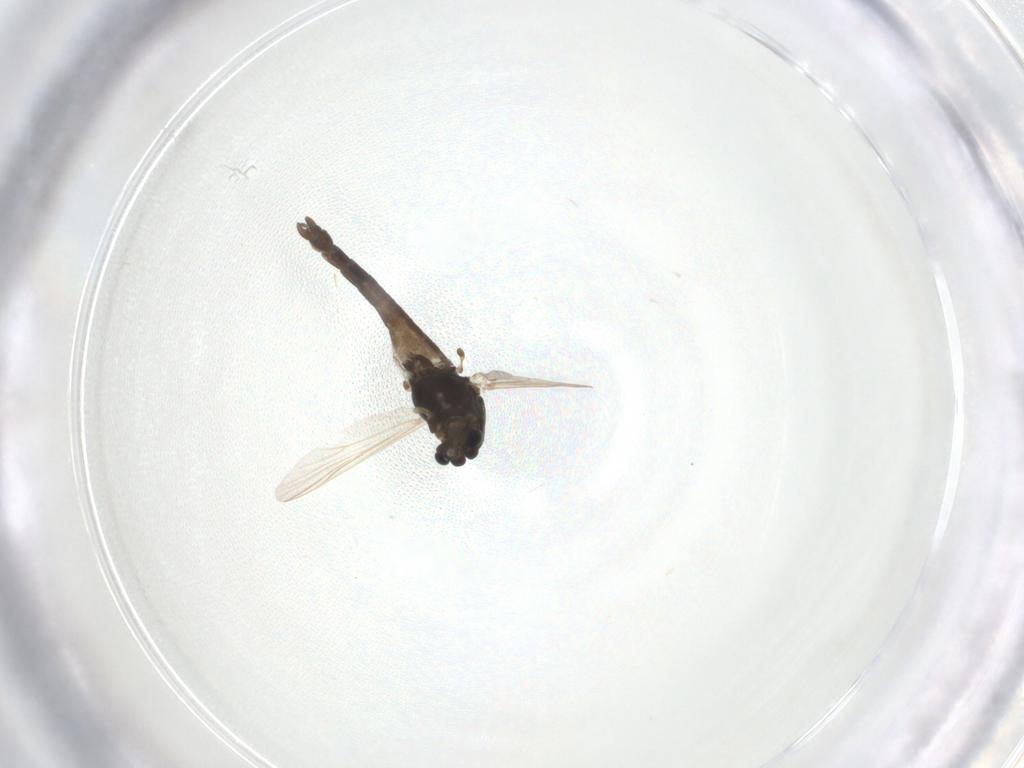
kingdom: Animalia
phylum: Arthropoda
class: Insecta
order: Diptera
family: Chironomidae
